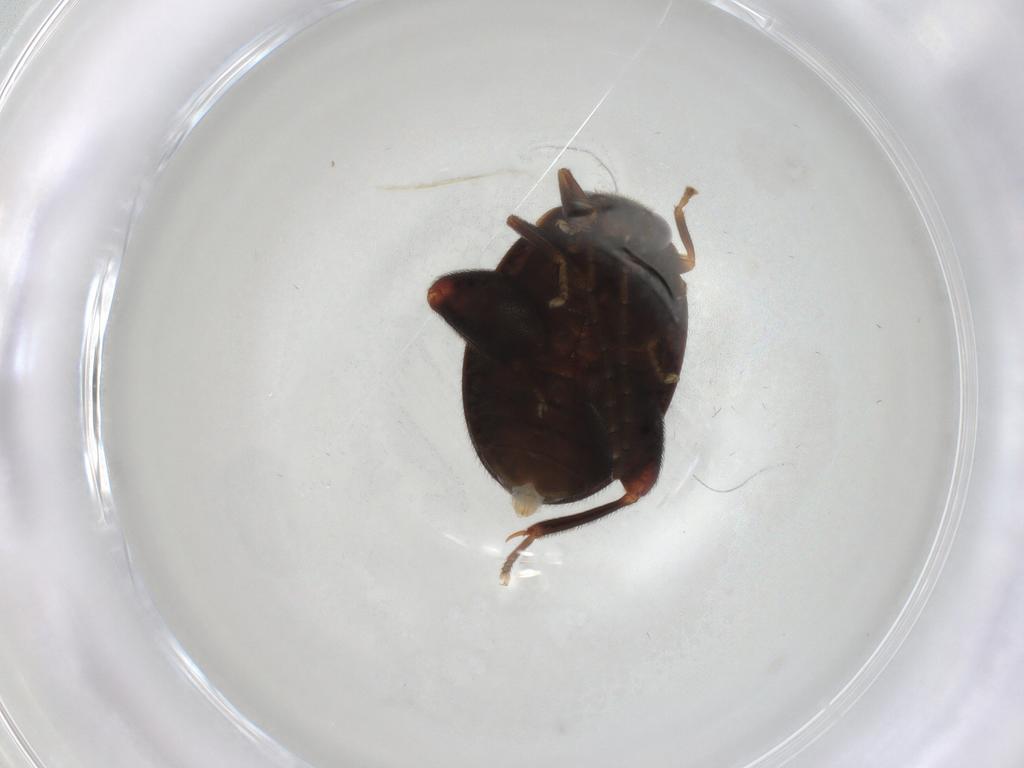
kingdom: Animalia
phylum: Arthropoda
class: Insecta
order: Coleoptera
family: Scirtidae
